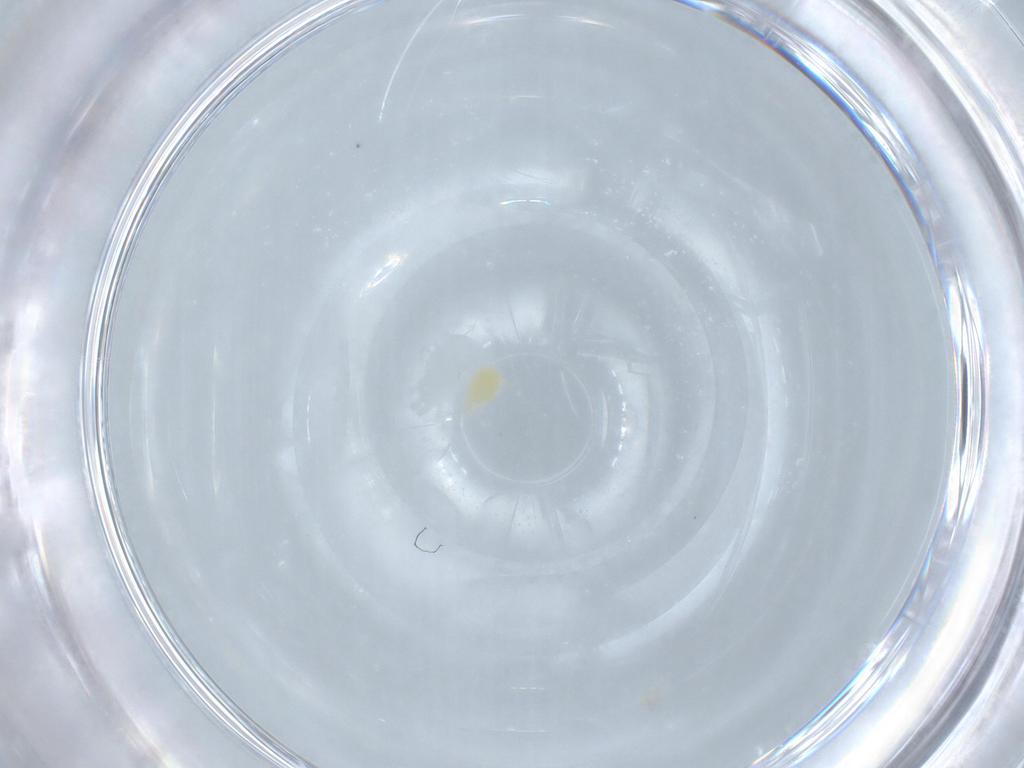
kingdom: Animalia
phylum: Arthropoda
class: Arachnida
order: Trombidiformes
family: Tetranychidae
